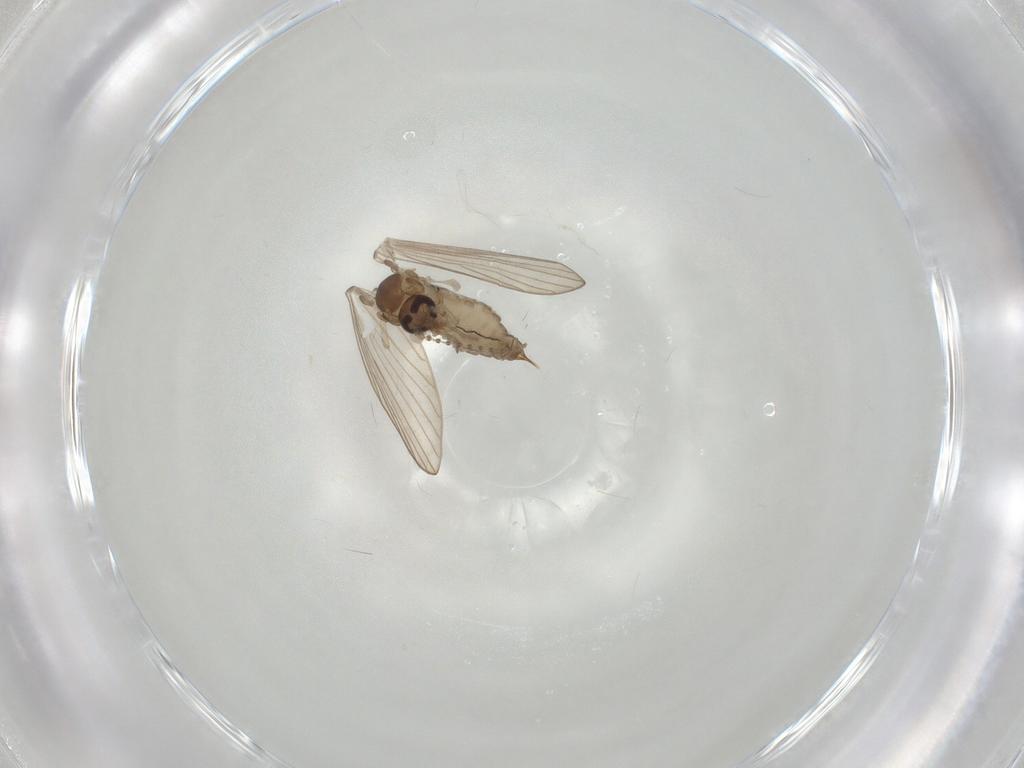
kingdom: Animalia
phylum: Arthropoda
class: Insecta
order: Diptera
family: Psychodidae
